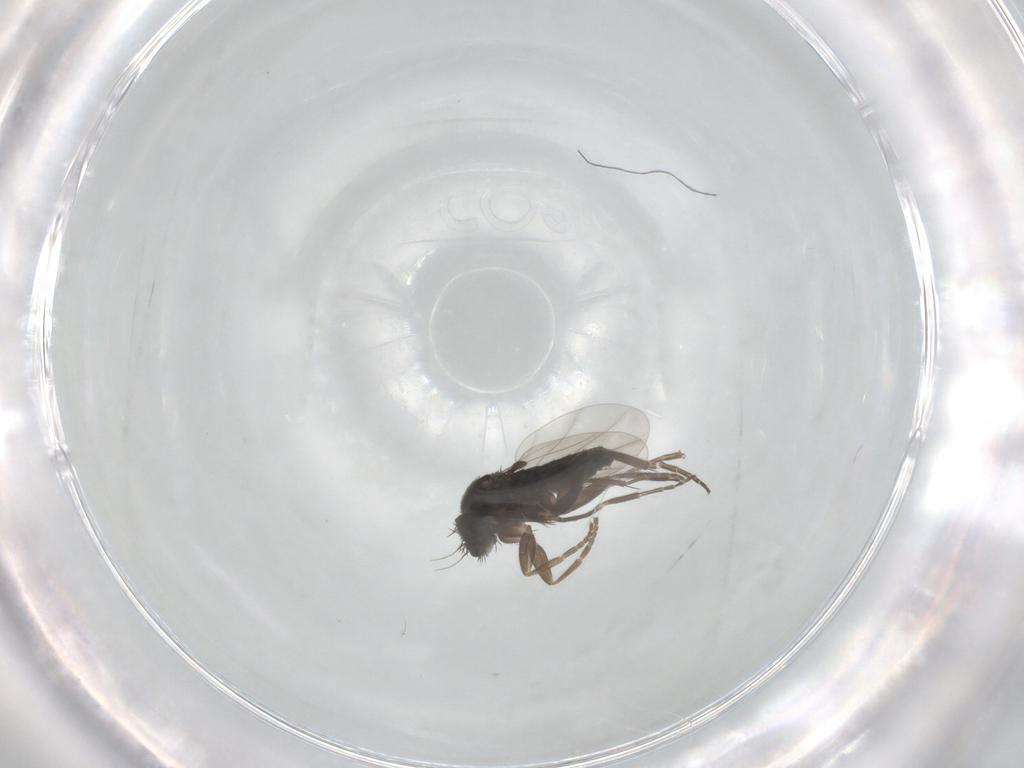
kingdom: Animalia
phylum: Arthropoda
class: Insecta
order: Diptera
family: Phoridae
